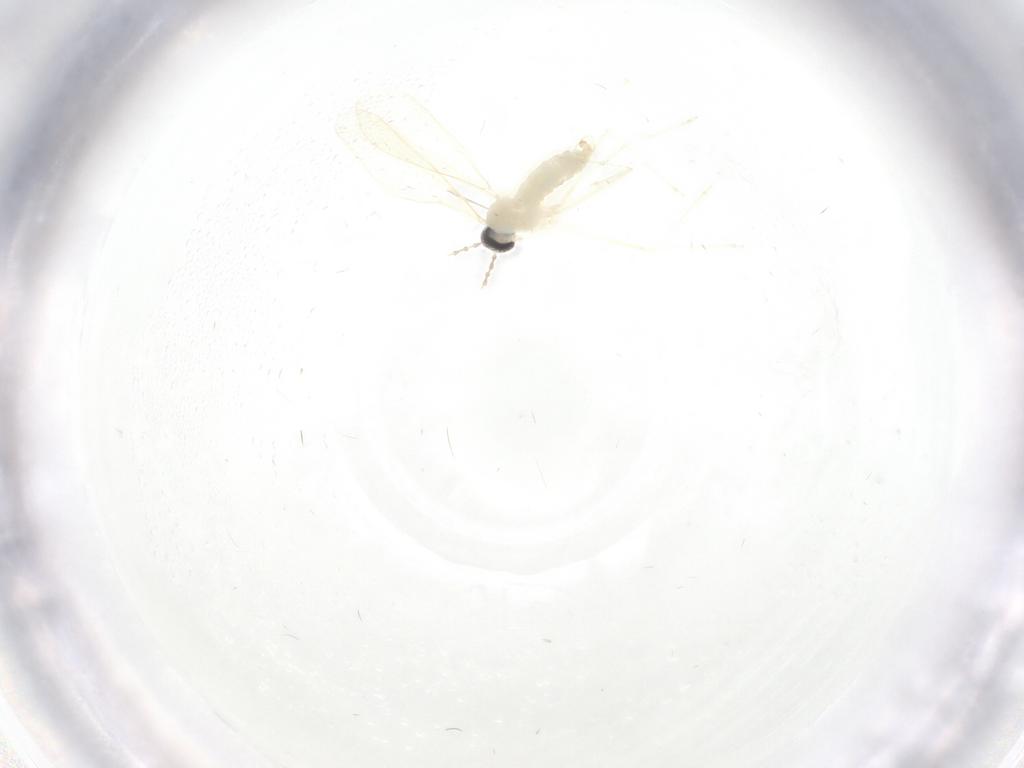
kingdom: Animalia
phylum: Arthropoda
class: Insecta
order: Diptera
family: Cecidomyiidae
